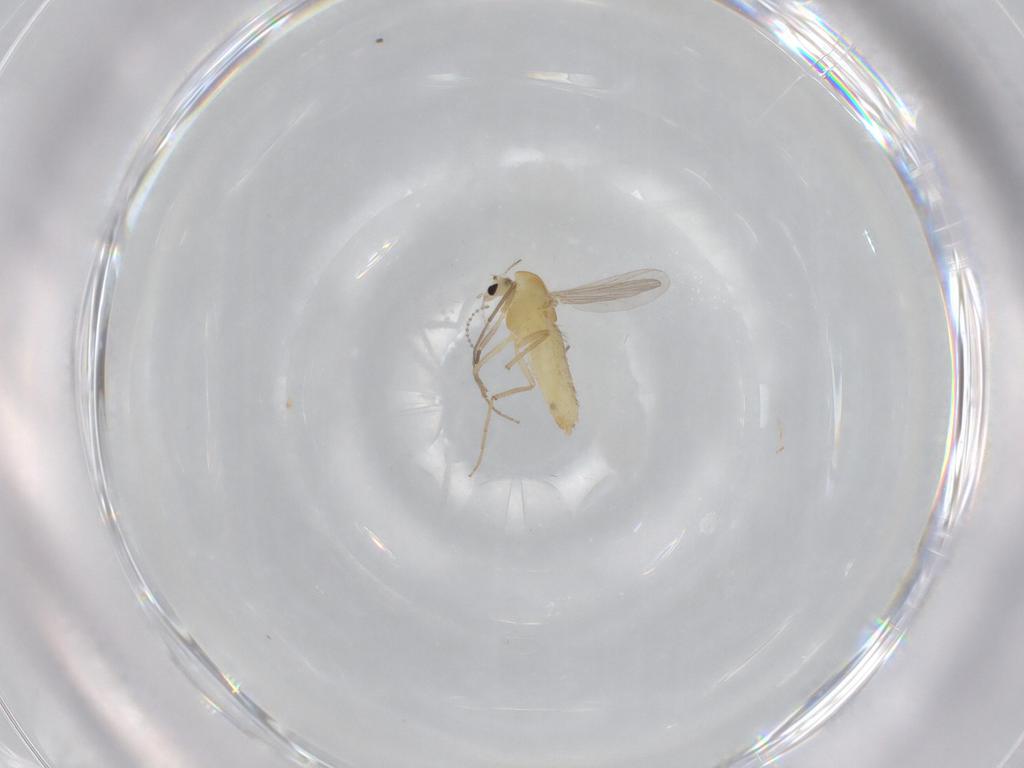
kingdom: Animalia
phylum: Arthropoda
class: Insecta
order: Diptera
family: Chironomidae
